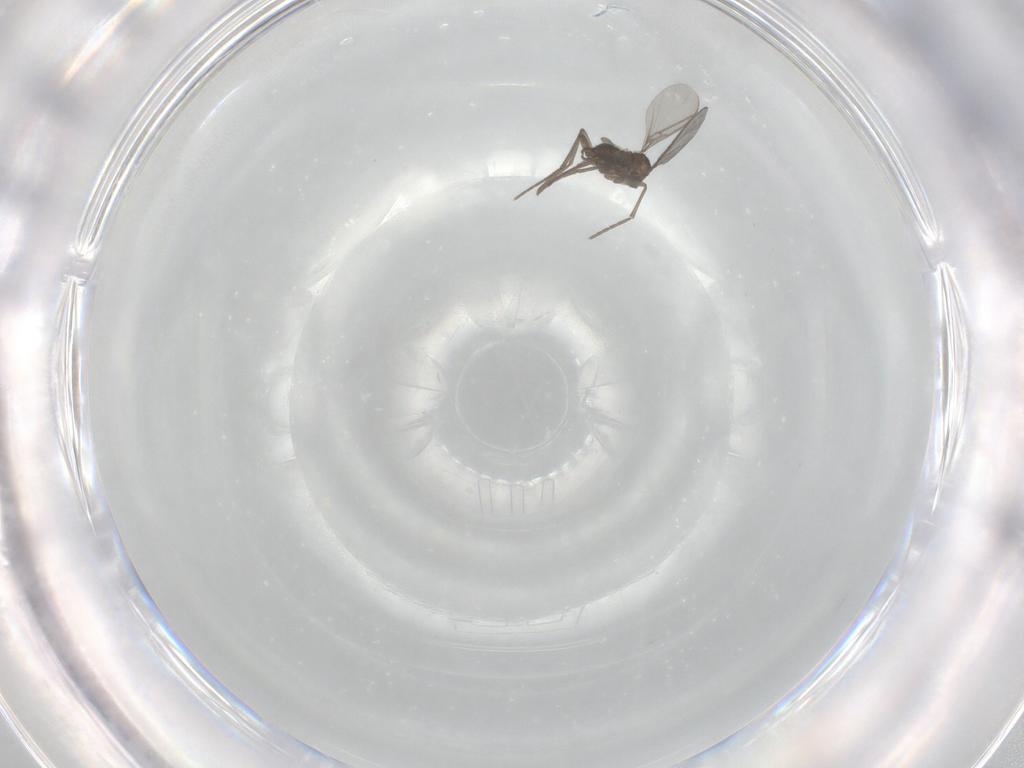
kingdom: Animalia
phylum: Arthropoda
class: Insecta
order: Diptera
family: Sciaridae
